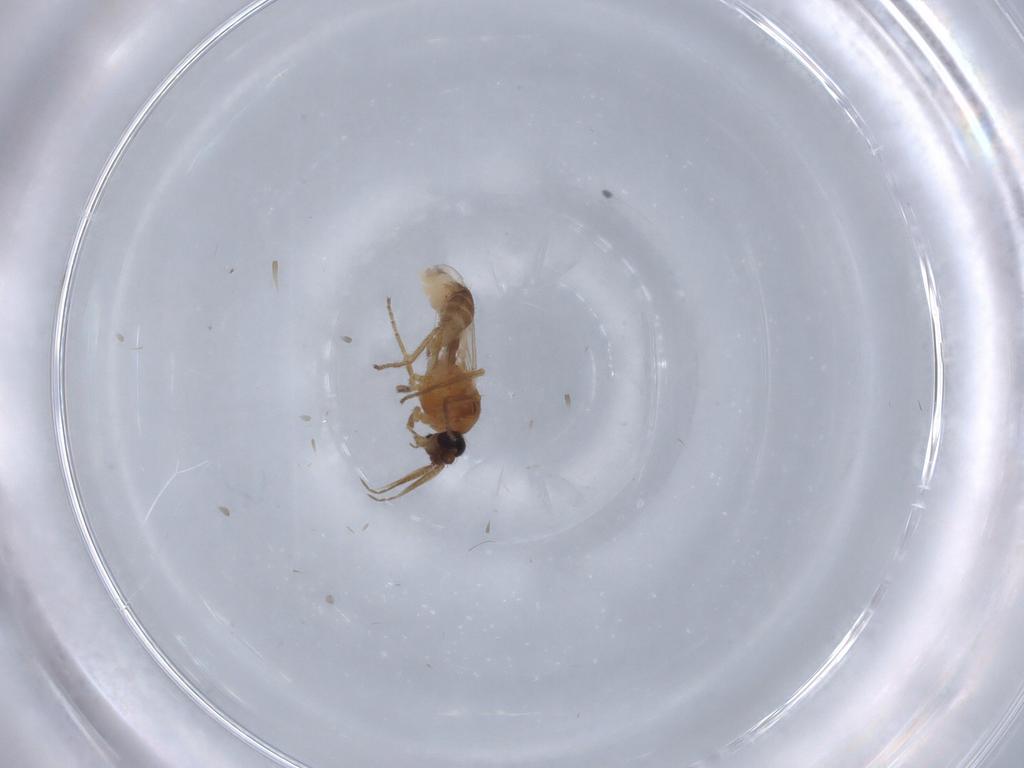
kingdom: Animalia
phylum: Arthropoda
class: Insecta
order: Diptera
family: Ceratopogonidae
